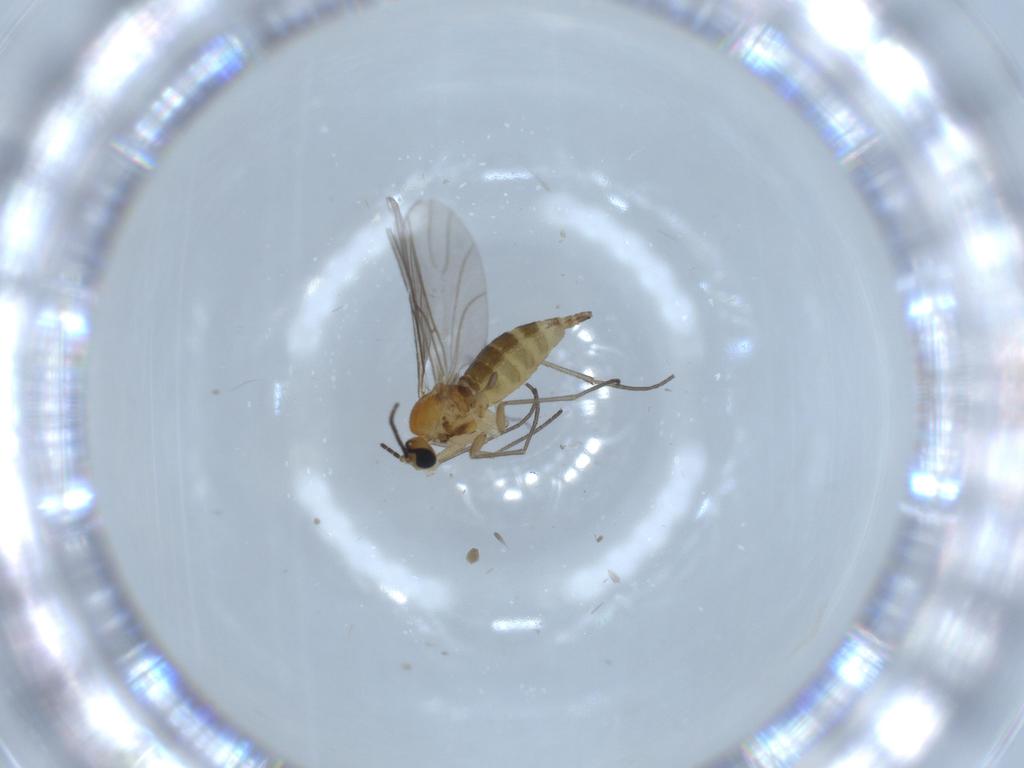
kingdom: Animalia
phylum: Arthropoda
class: Insecta
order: Diptera
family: Cecidomyiidae
